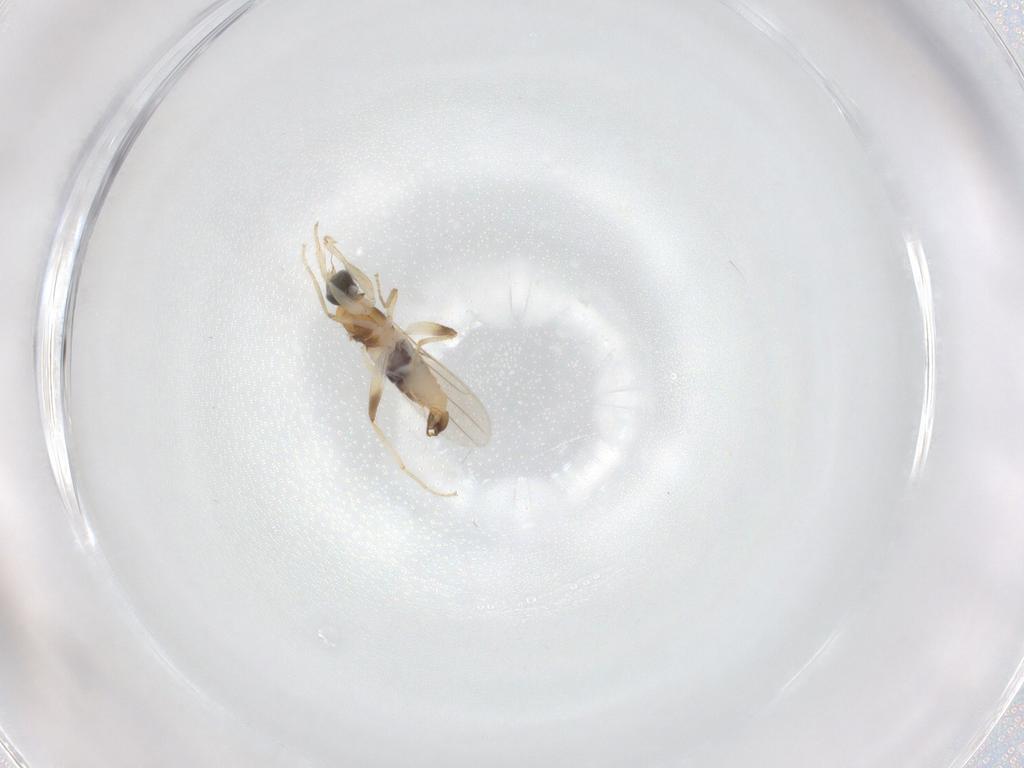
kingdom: Animalia
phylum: Arthropoda
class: Insecta
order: Diptera
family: Hybotidae
